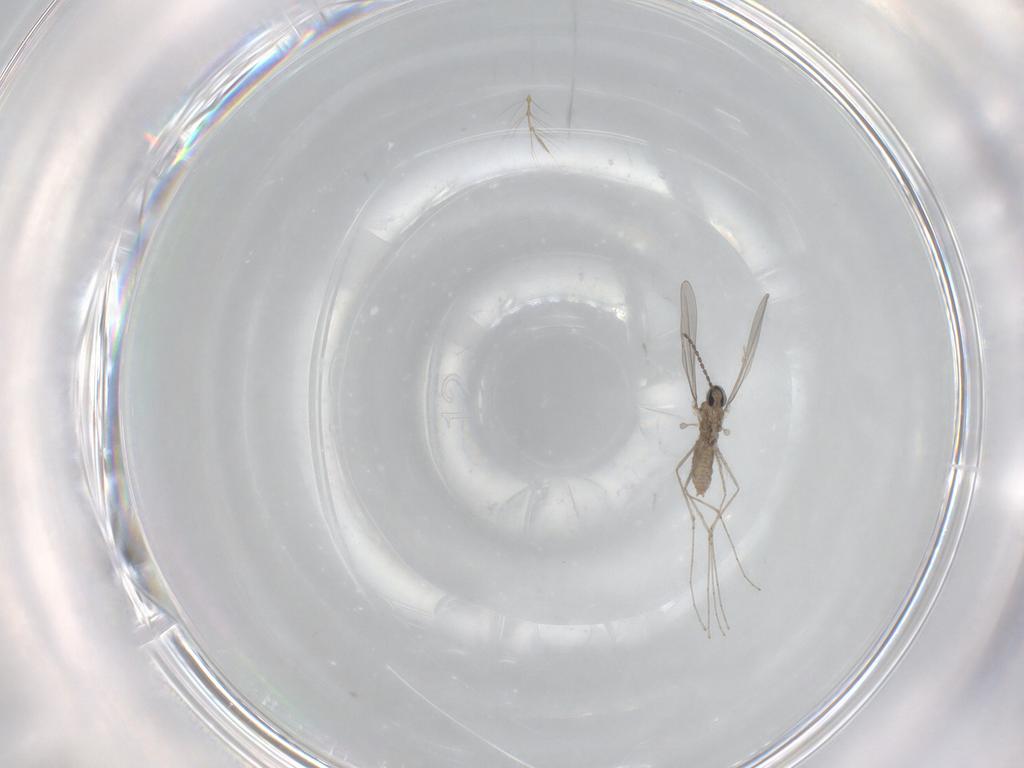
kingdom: Animalia
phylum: Arthropoda
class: Insecta
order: Diptera
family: Cecidomyiidae
